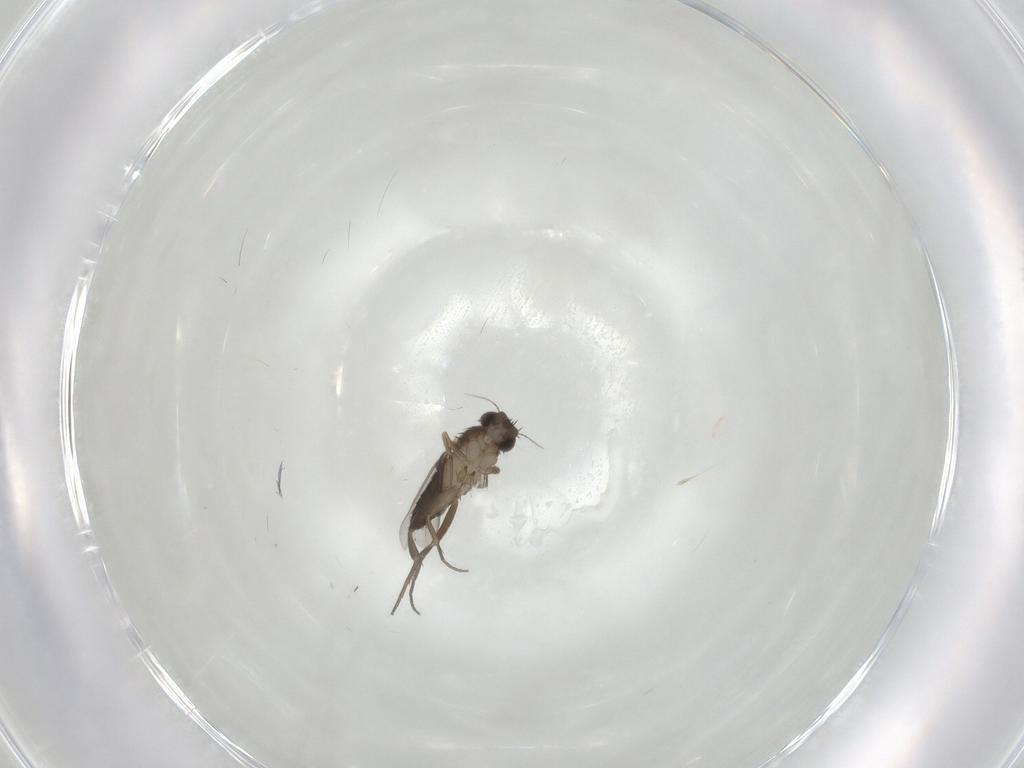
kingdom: Animalia
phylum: Arthropoda
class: Insecta
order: Diptera
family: Phoridae
